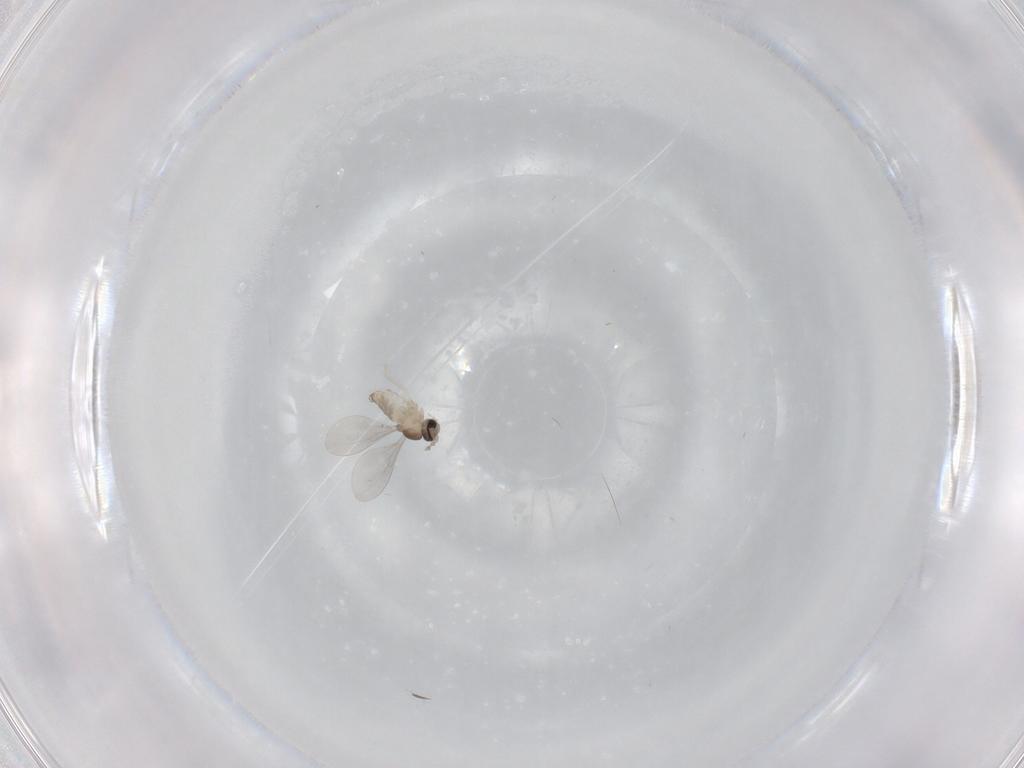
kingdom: Animalia
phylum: Arthropoda
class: Insecta
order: Diptera
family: Cecidomyiidae
